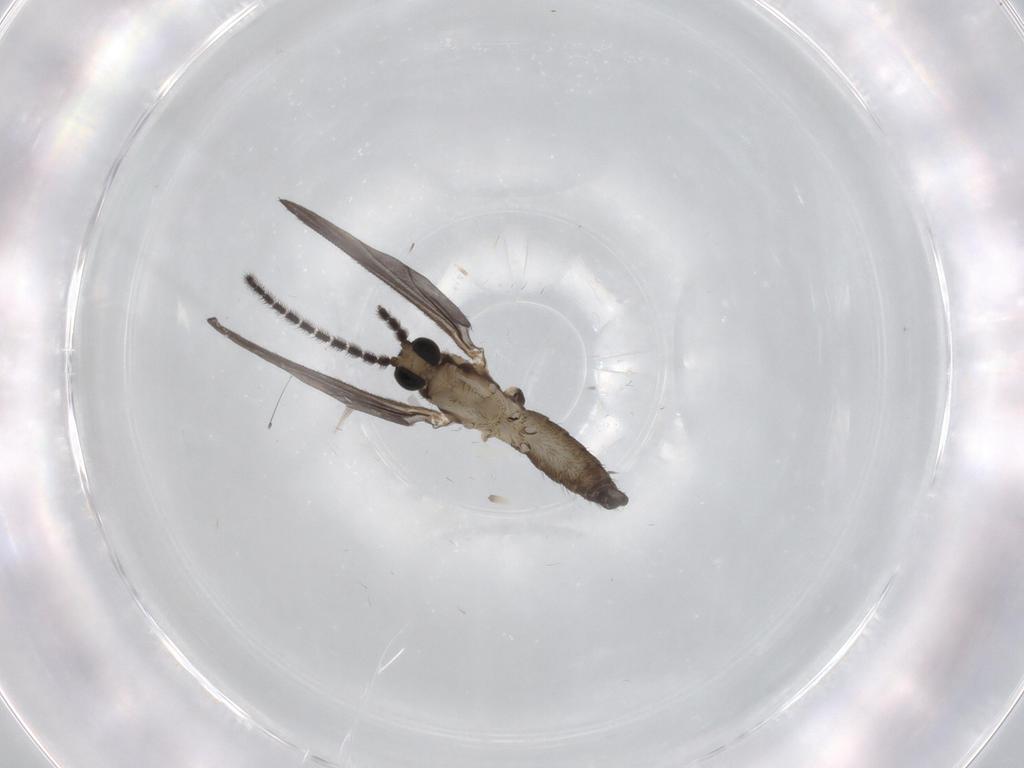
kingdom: Animalia
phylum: Arthropoda
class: Insecta
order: Diptera
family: Sciaridae
